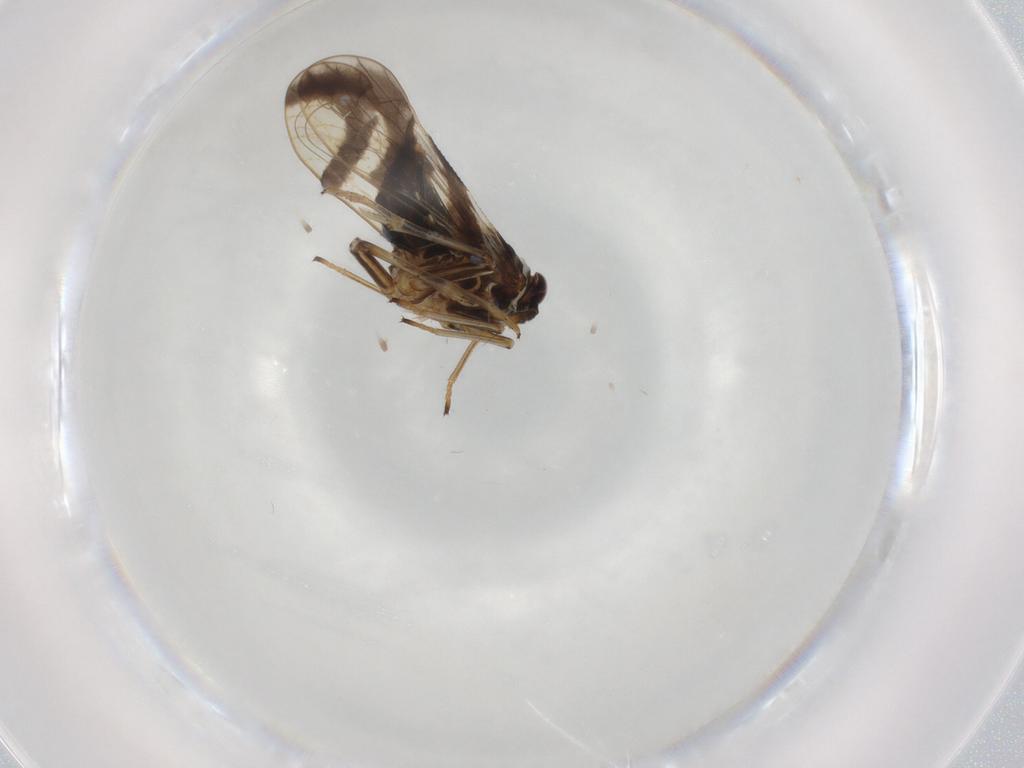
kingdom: Animalia
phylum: Arthropoda
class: Insecta
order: Hemiptera
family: Delphacidae
